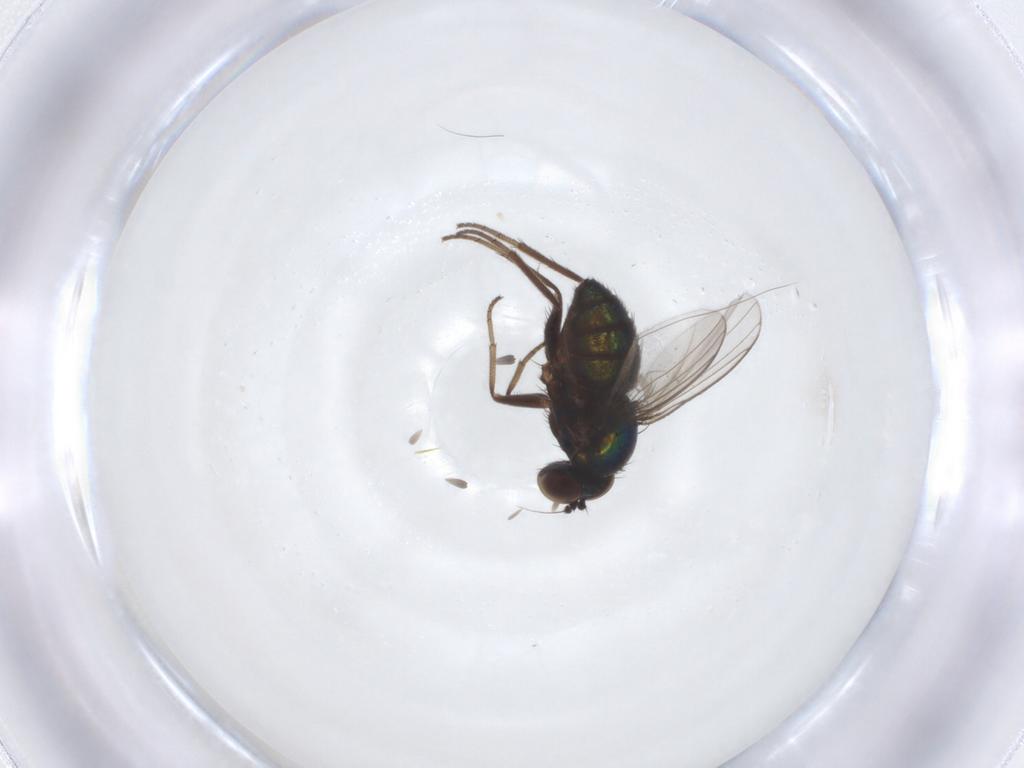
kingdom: Animalia
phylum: Arthropoda
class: Insecta
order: Diptera
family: Dolichopodidae
